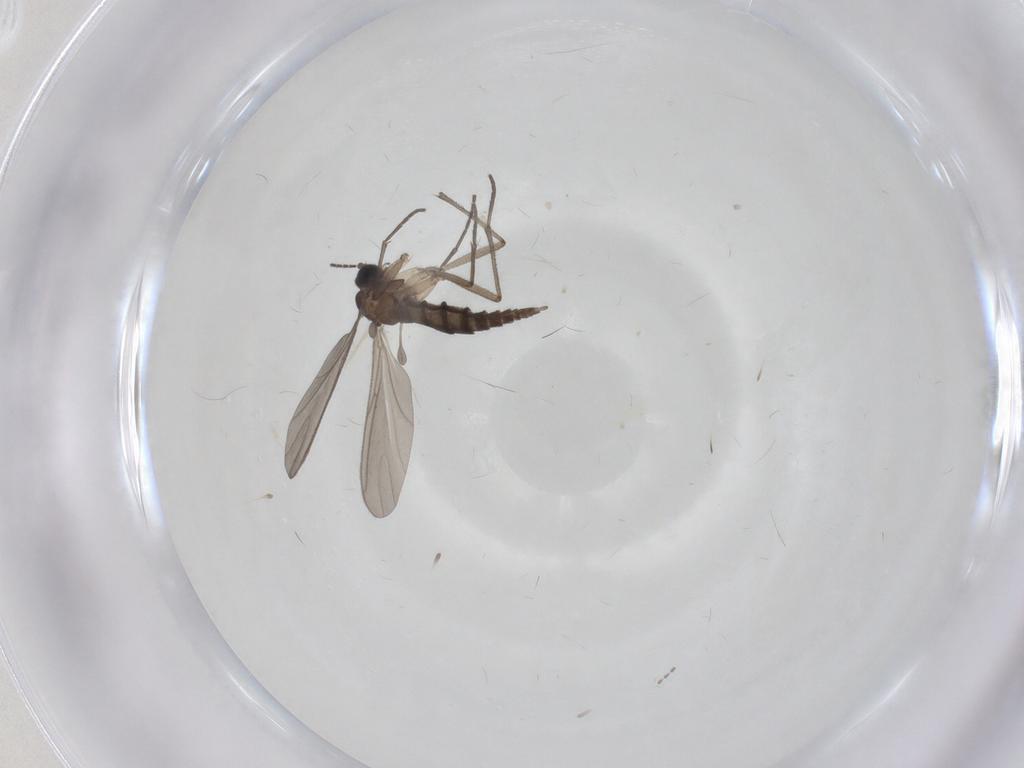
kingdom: Animalia
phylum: Arthropoda
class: Insecta
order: Diptera
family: Sciaridae
